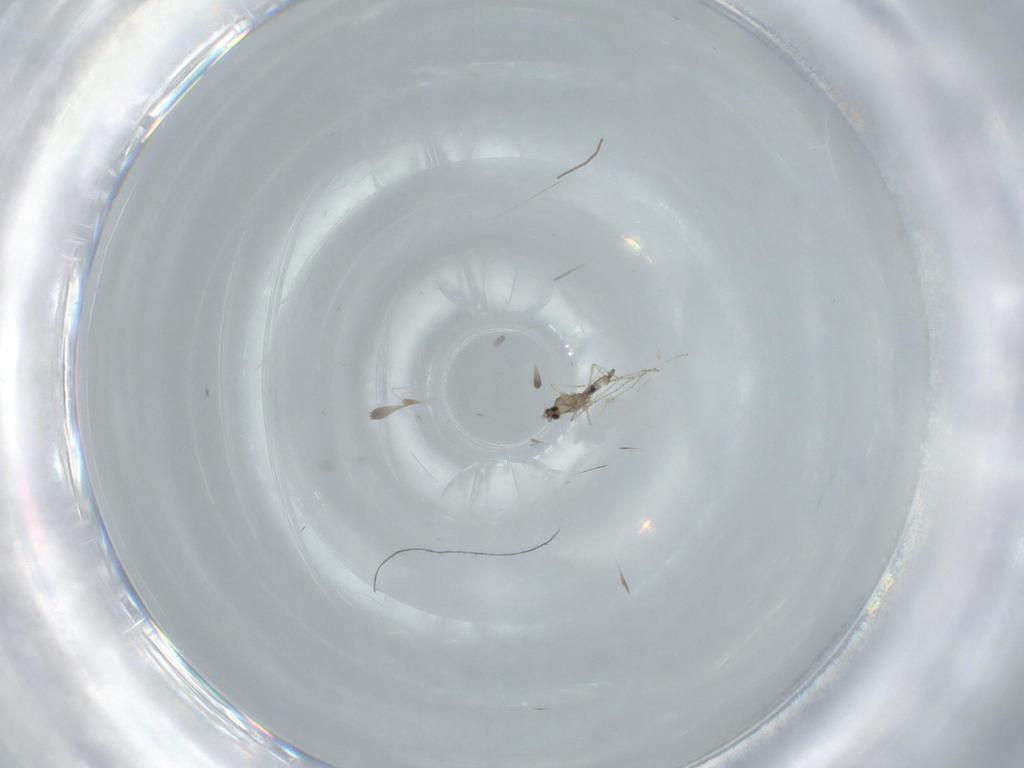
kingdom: Animalia
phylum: Arthropoda
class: Insecta
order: Diptera
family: Cecidomyiidae
